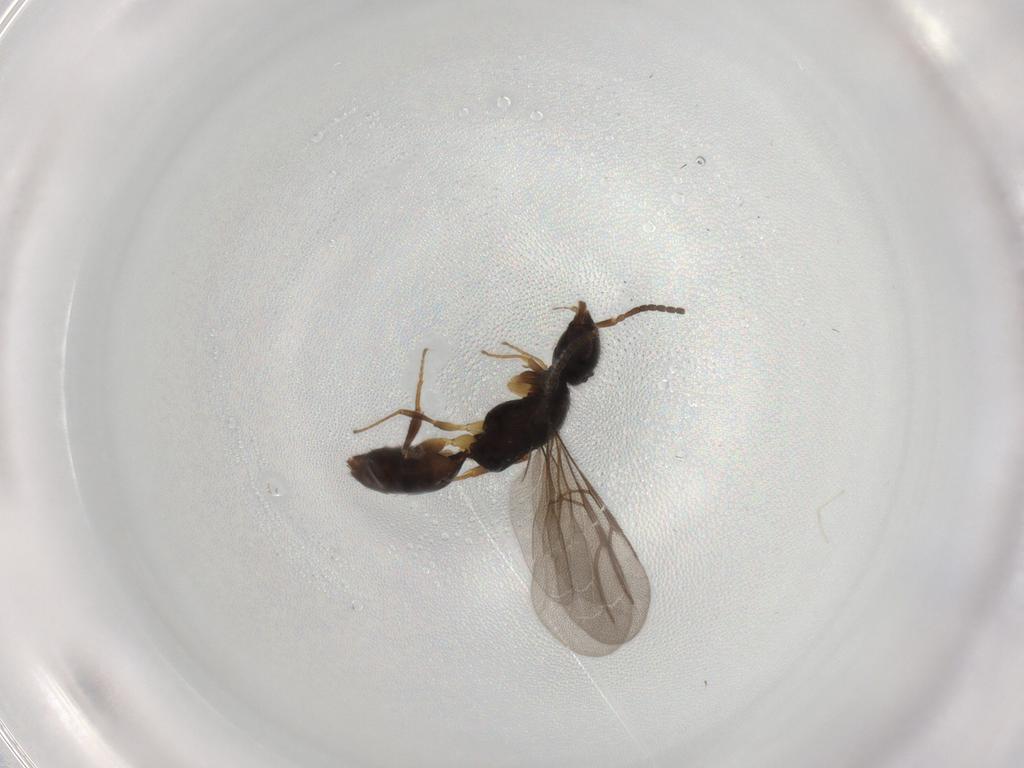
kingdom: Animalia
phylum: Arthropoda
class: Insecta
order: Hymenoptera
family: Bethylidae
